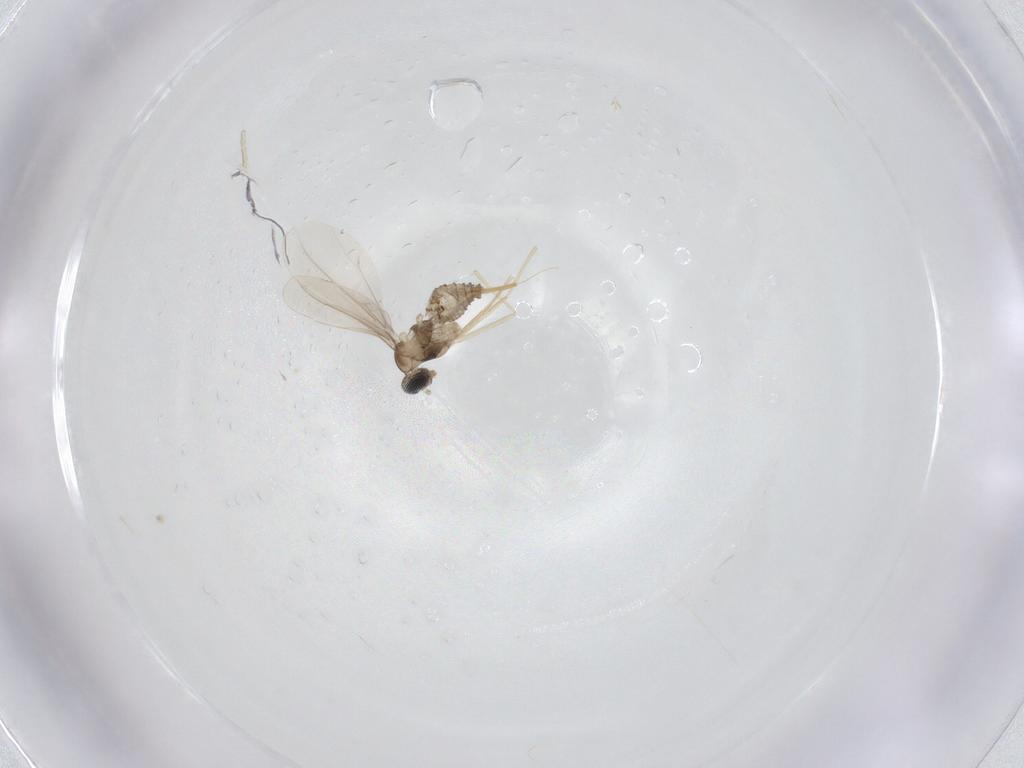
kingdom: Animalia
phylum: Arthropoda
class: Insecta
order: Diptera
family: Cecidomyiidae
